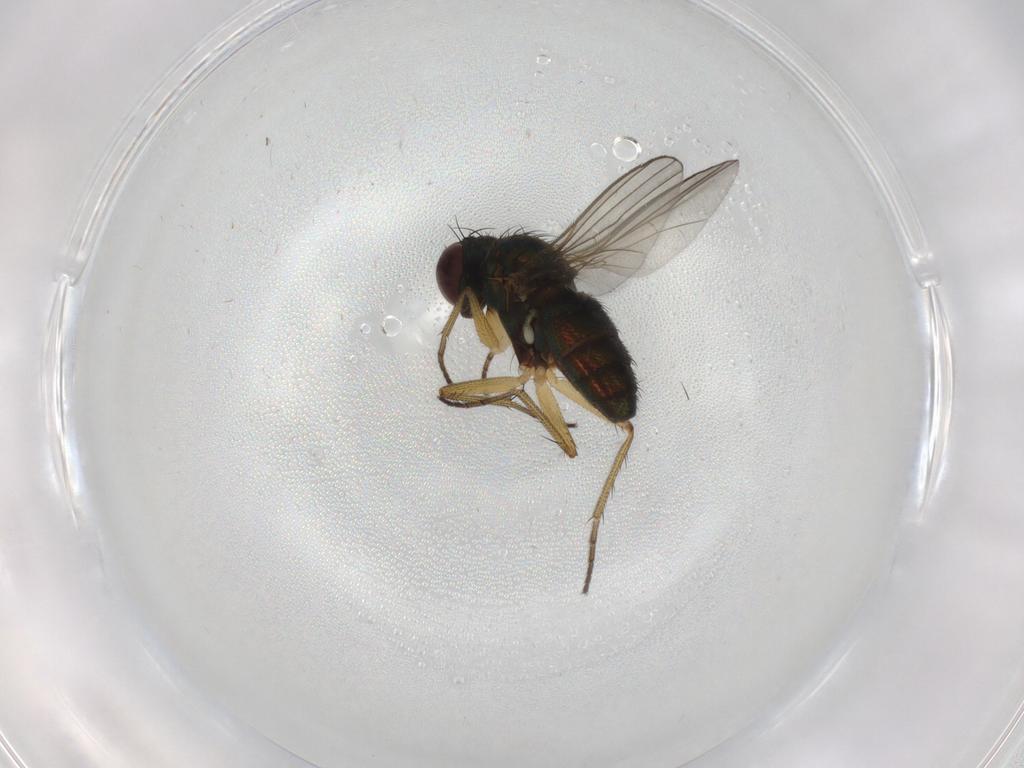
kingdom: Animalia
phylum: Arthropoda
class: Insecta
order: Diptera
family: Chironomidae
